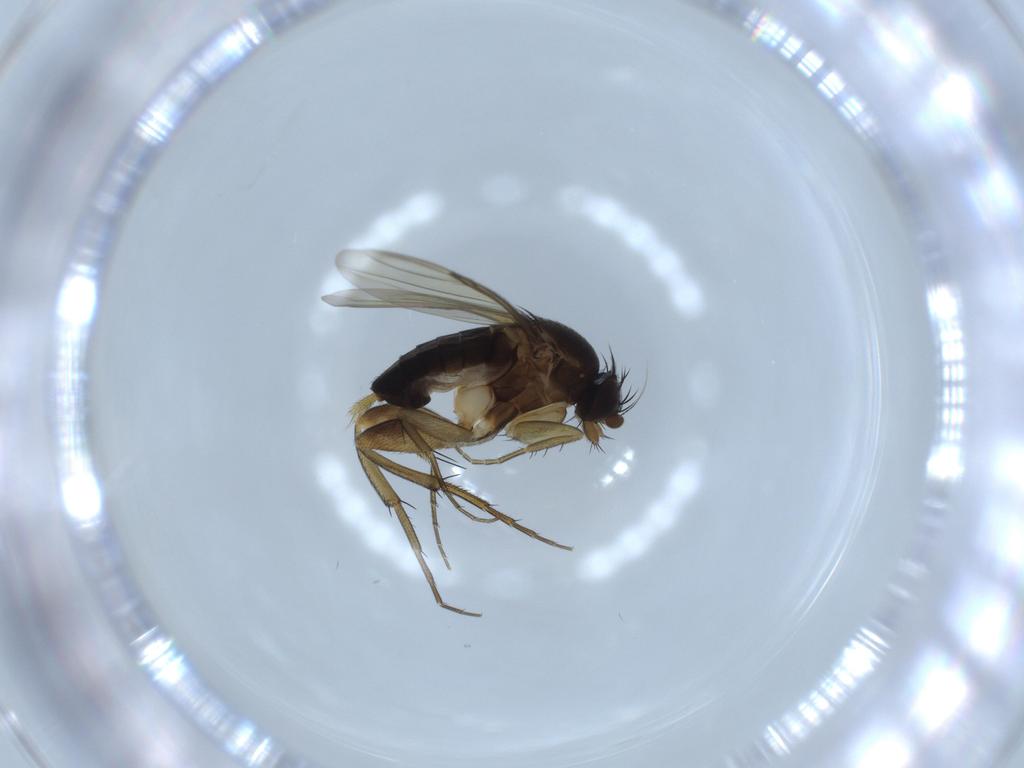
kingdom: Animalia
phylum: Arthropoda
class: Insecta
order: Diptera
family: Phoridae
